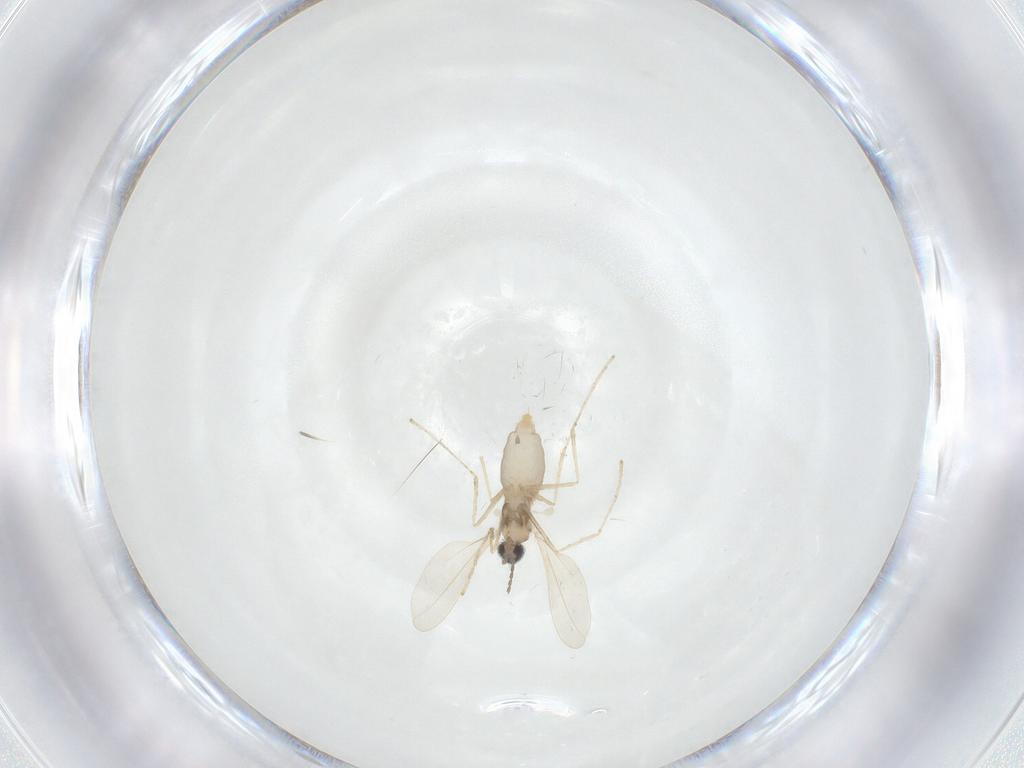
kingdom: Animalia
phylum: Arthropoda
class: Insecta
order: Diptera
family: Cecidomyiidae
